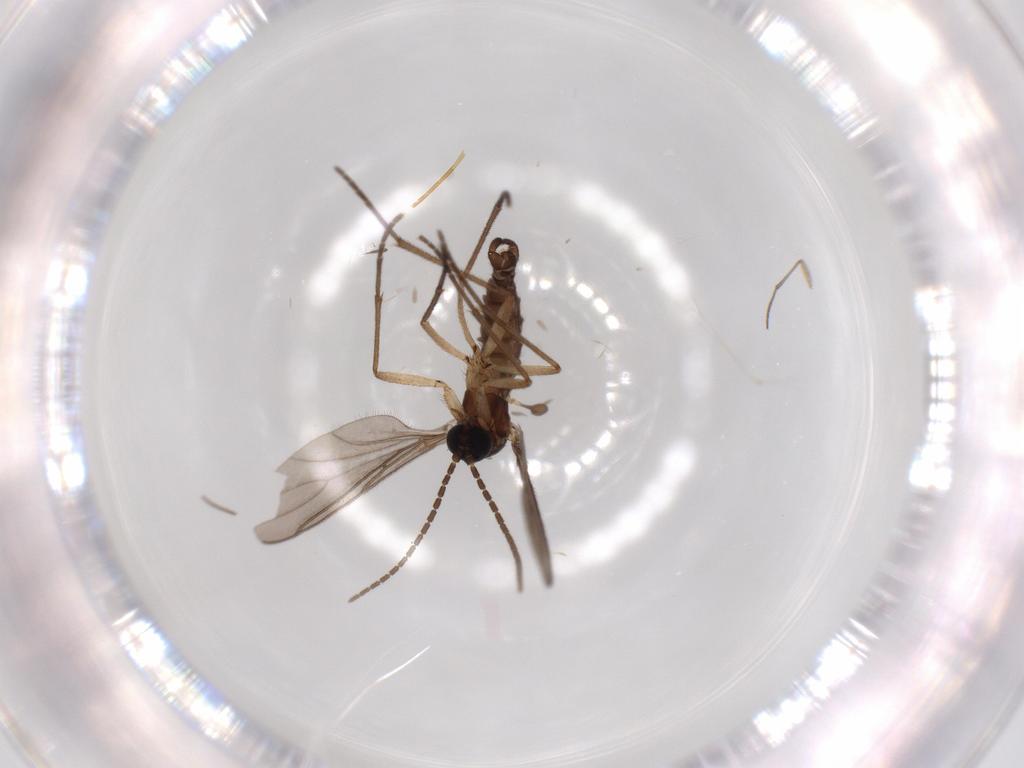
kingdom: Animalia
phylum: Arthropoda
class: Insecta
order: Diptera
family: Sciaridae
